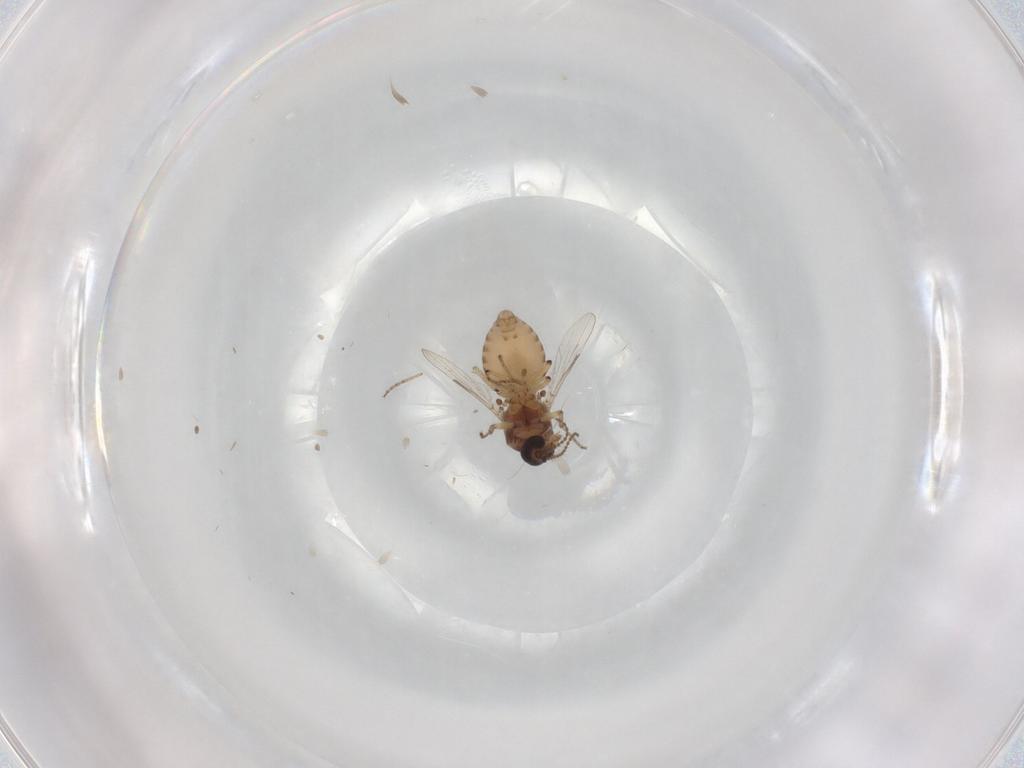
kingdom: Animalia
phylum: Arthropoda
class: Insecta
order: Diptera
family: Ceratopogonidae
